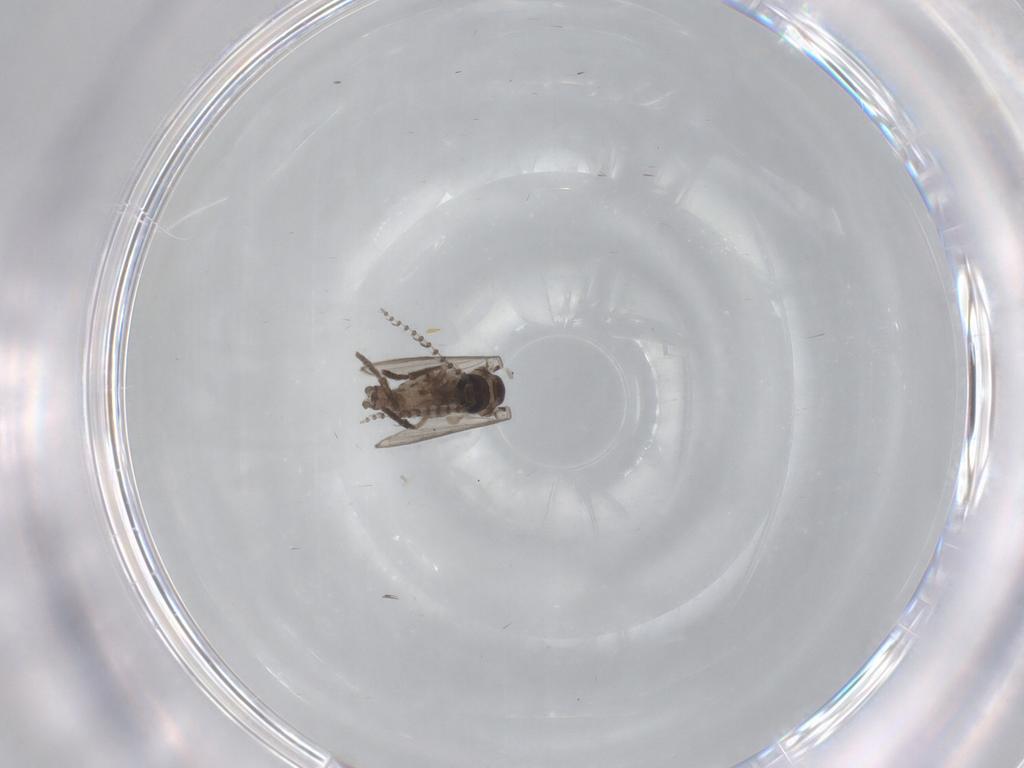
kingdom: Animalia
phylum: Arthropoda
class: Insecta
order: Diptera
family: Psychodidae
